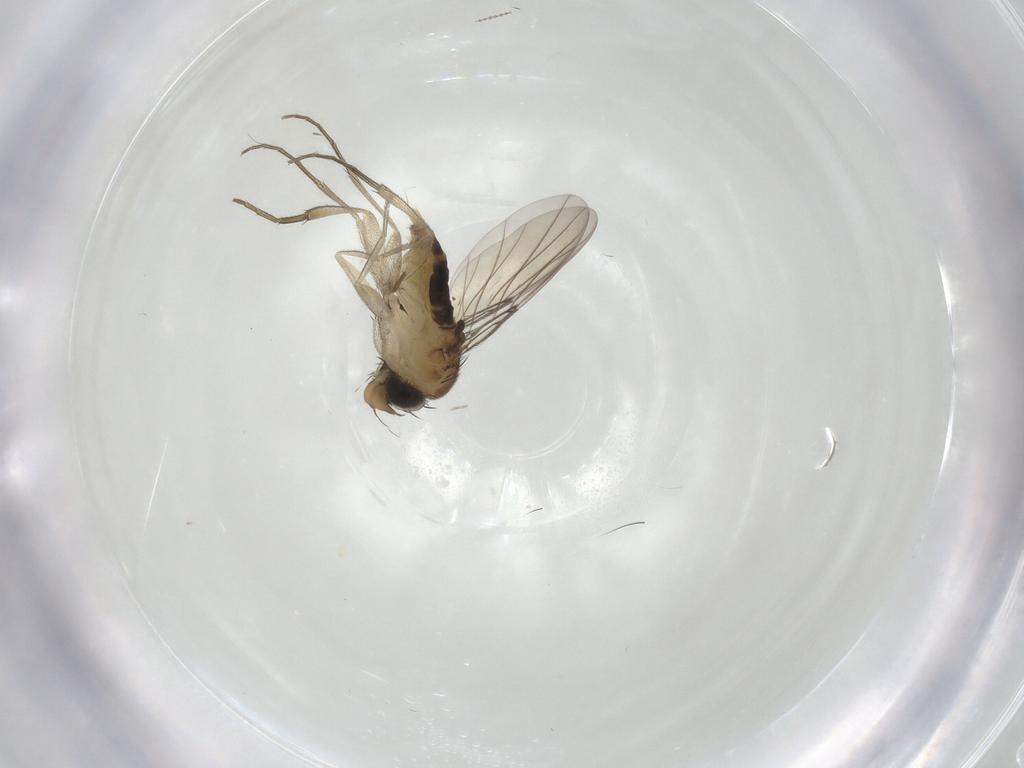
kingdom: Animalia
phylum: Arthropoda
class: Insecta
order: Diptera
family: Phoridae
